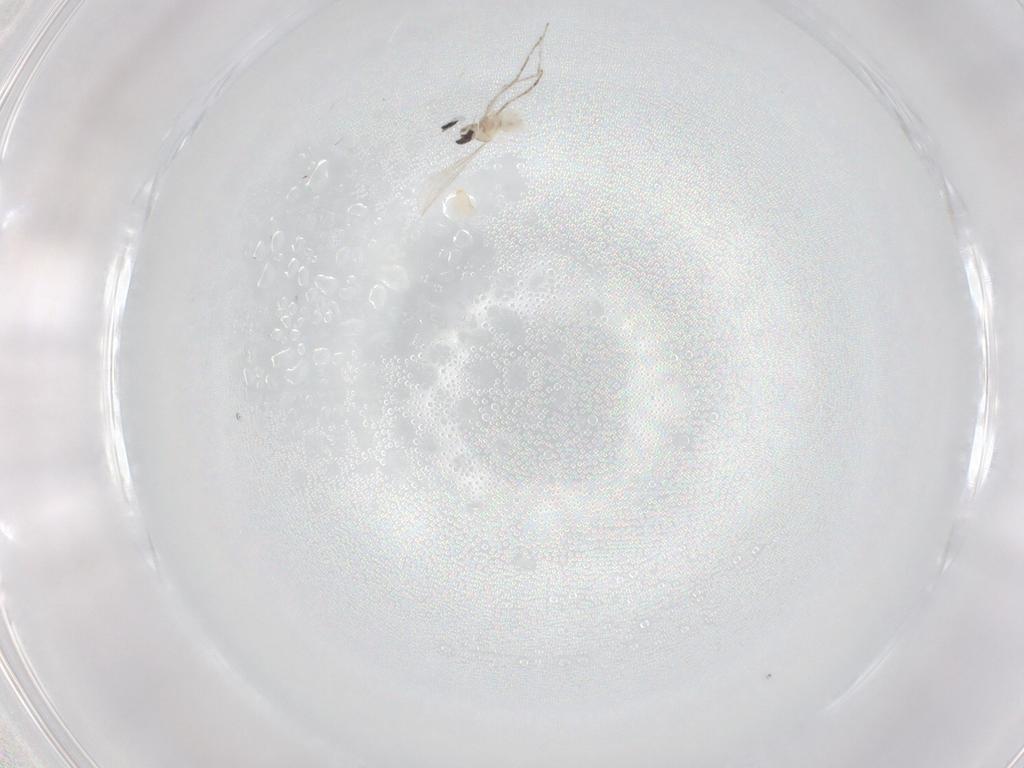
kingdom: Animalia
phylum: Arthropoda
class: Insecta
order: Diptera
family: Cecidomyiidae
